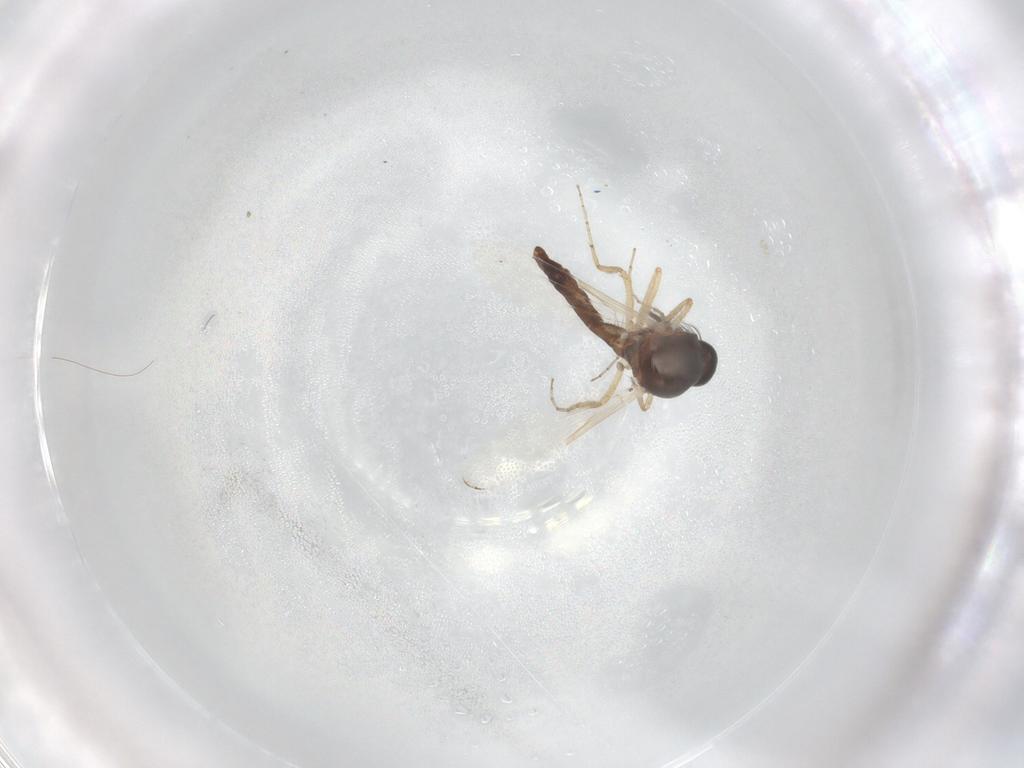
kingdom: Animalia
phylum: Arthropoda
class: Insecta
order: Diptera
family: Ceratopogonidae
